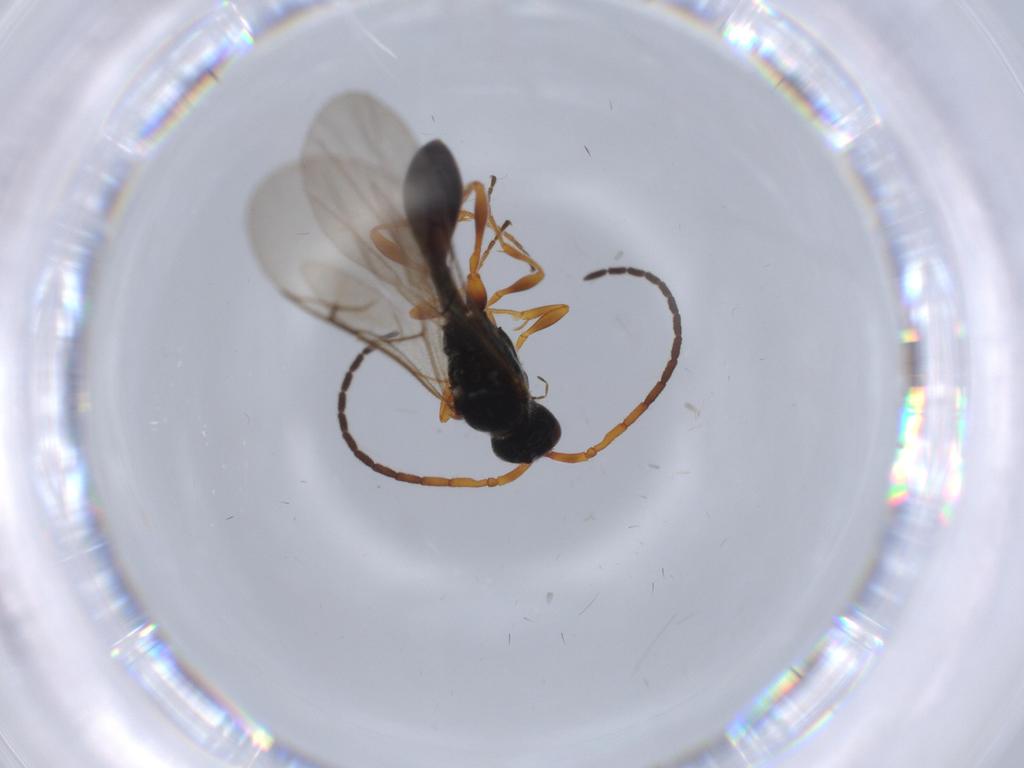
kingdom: Animalia
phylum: Arthropoda
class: Insecta
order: Hymenoptera
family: Diapriidae
